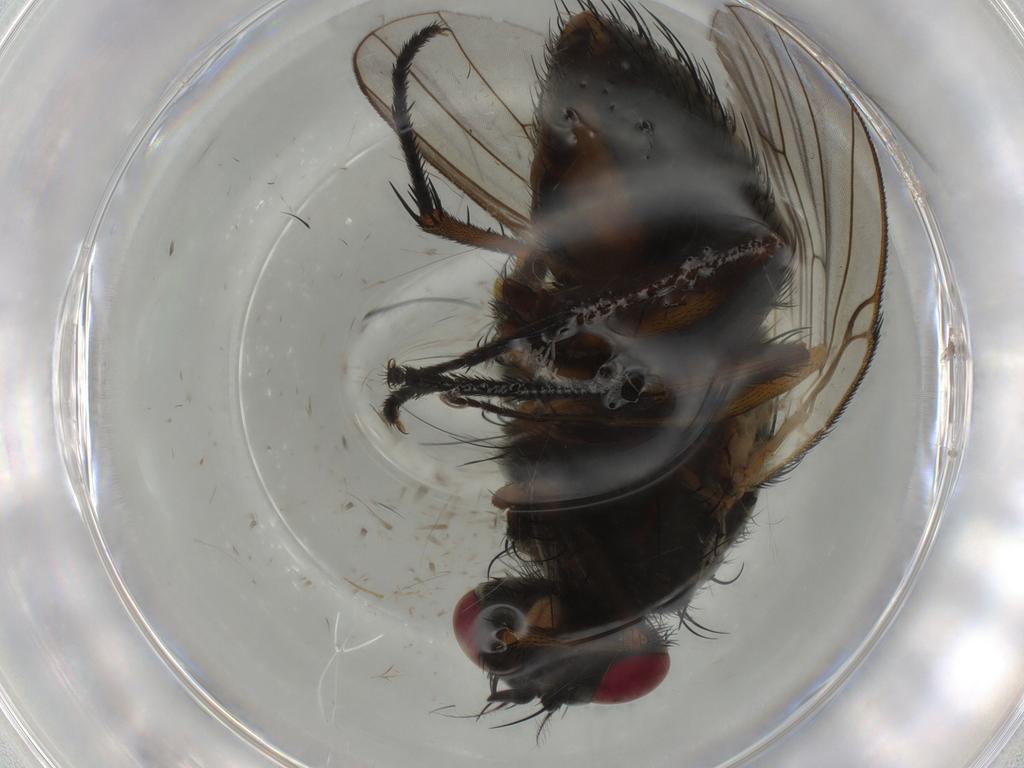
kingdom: Animalia
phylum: Arthropoda
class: Insecta
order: Diptera
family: Muscidae
